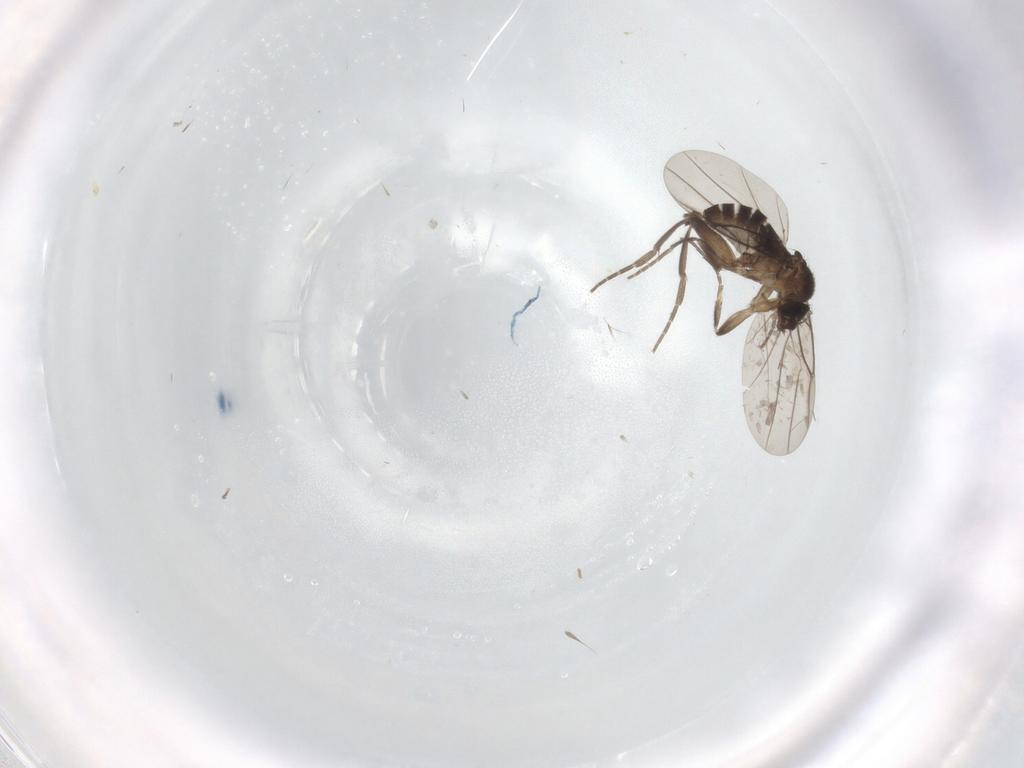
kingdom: Animalia
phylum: Arthropoda
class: Insecta
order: Diptera
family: Phoridae
